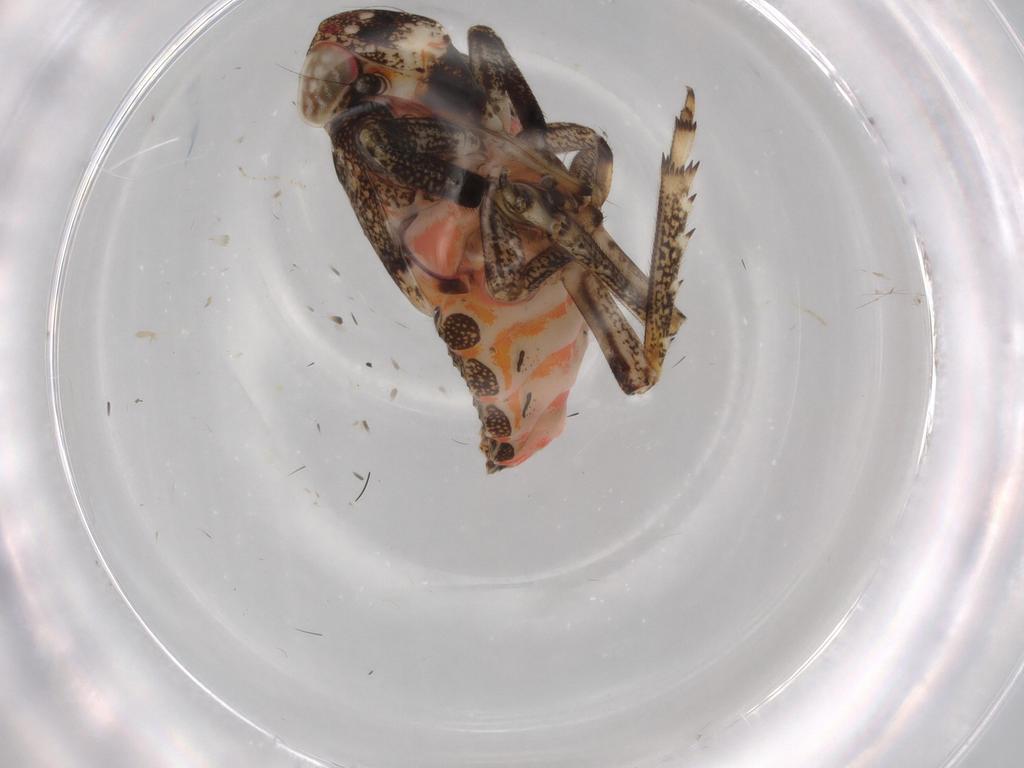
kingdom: Animalia
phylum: Arthropoda
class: Insecta
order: Hemiptera
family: Issidae
